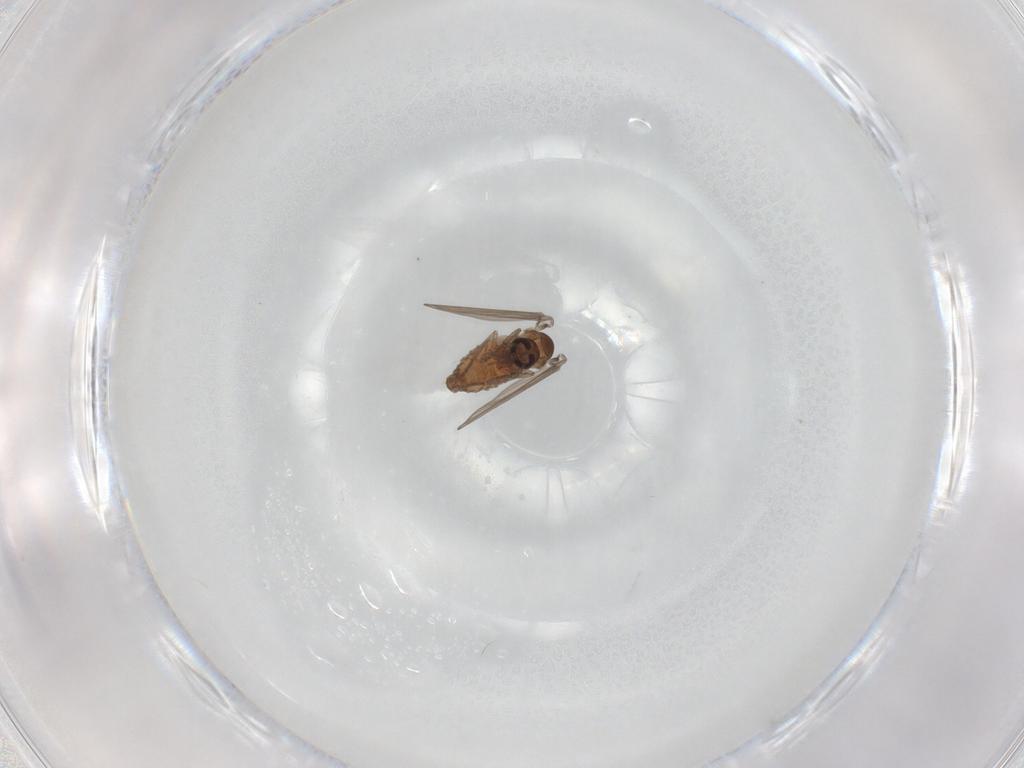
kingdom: Animalia
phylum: Arthropoda
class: Insecta
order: Diptera
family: Psychodidae
